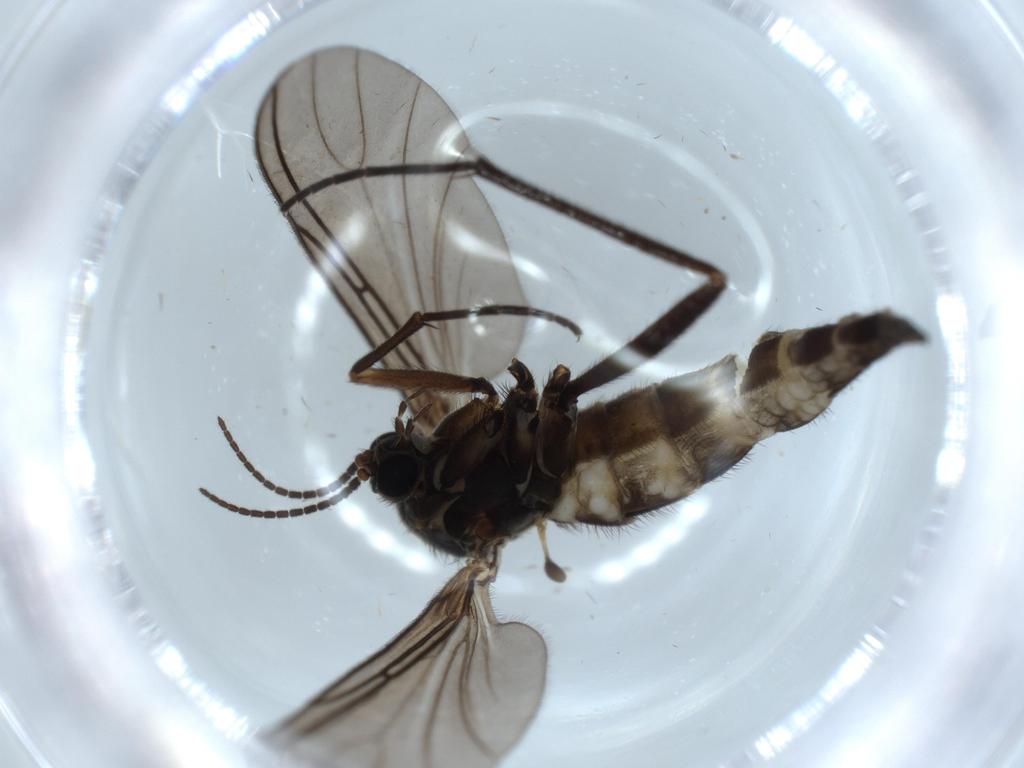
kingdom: Animalia
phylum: Arthropoda
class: Insecta
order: Diptera
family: Sciaridae
